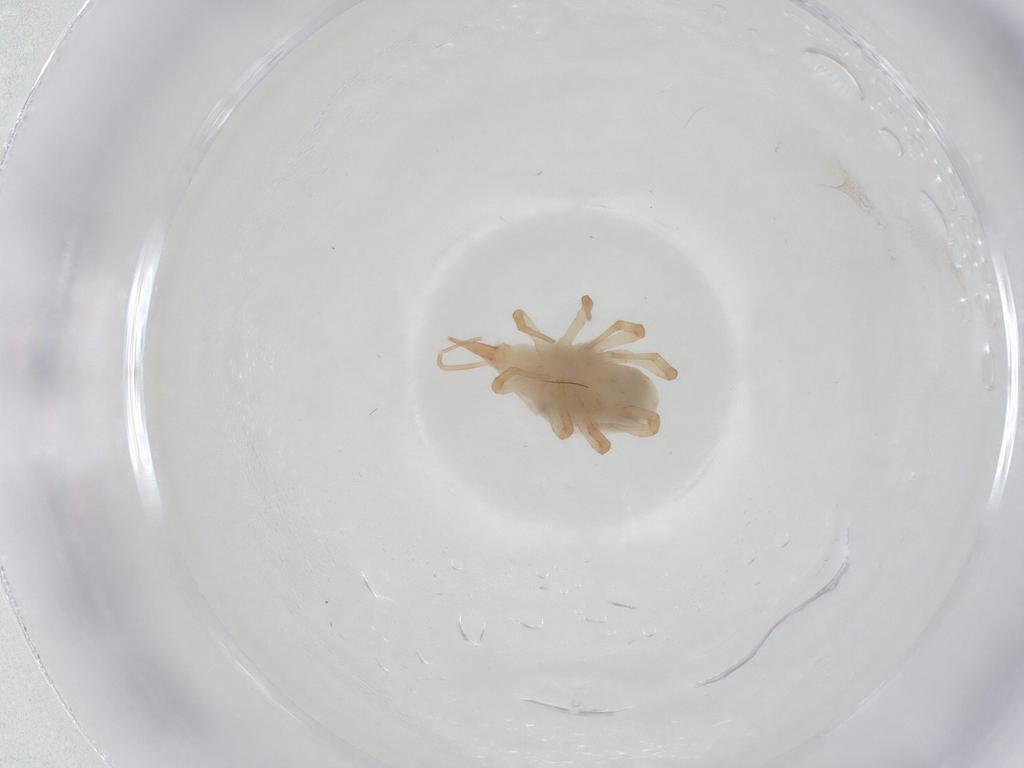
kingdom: Animalia
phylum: Arthropoda
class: Arachnida
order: Trombidiformes
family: Bdellidae
